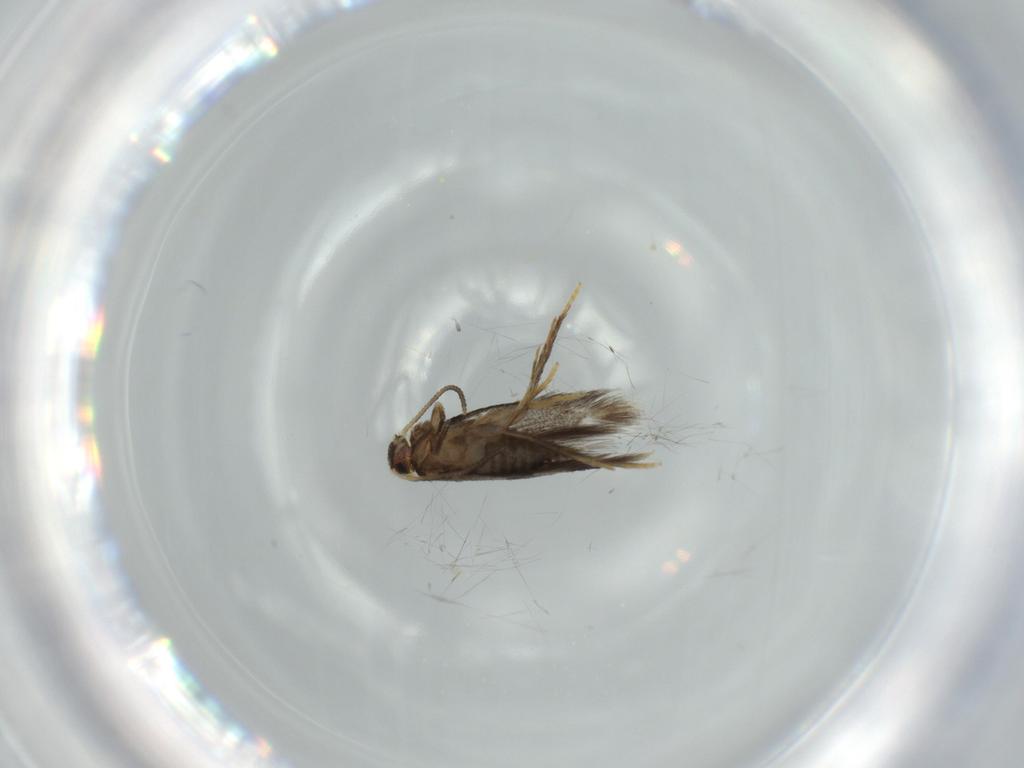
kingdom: Animalia
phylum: Arthropoda
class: Insecta
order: Lepidoptera
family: Nepticulidae
